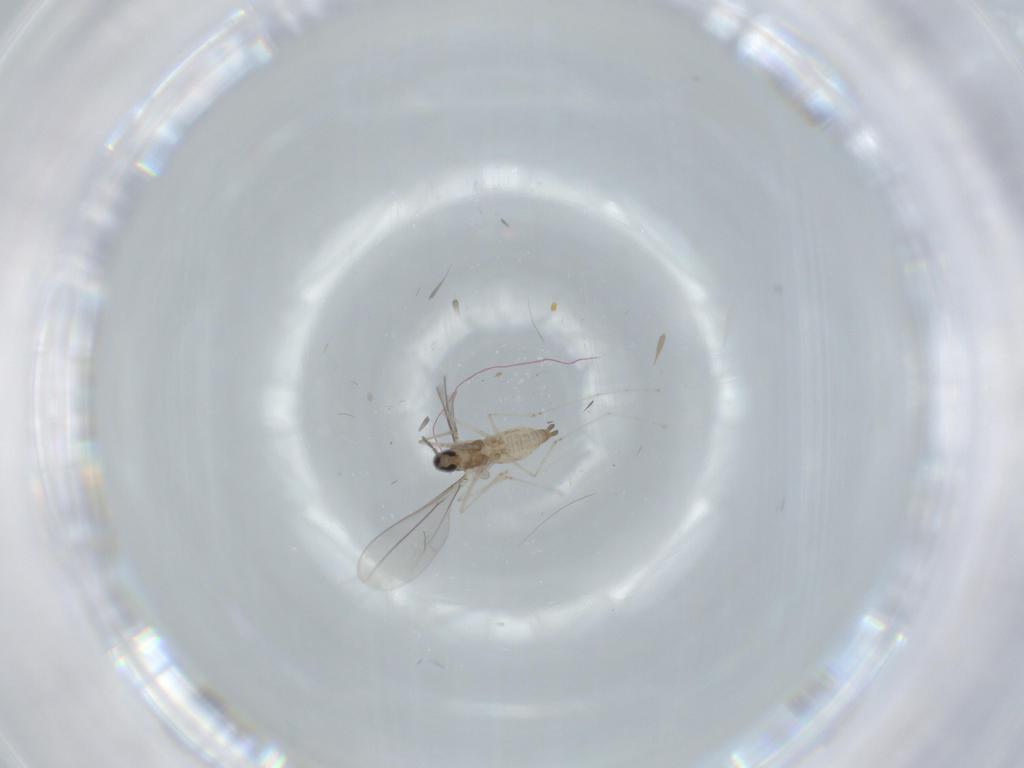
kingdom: Animalia
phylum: Arthropoda
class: Insecta
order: Diptera
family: Cecidomyiidae
